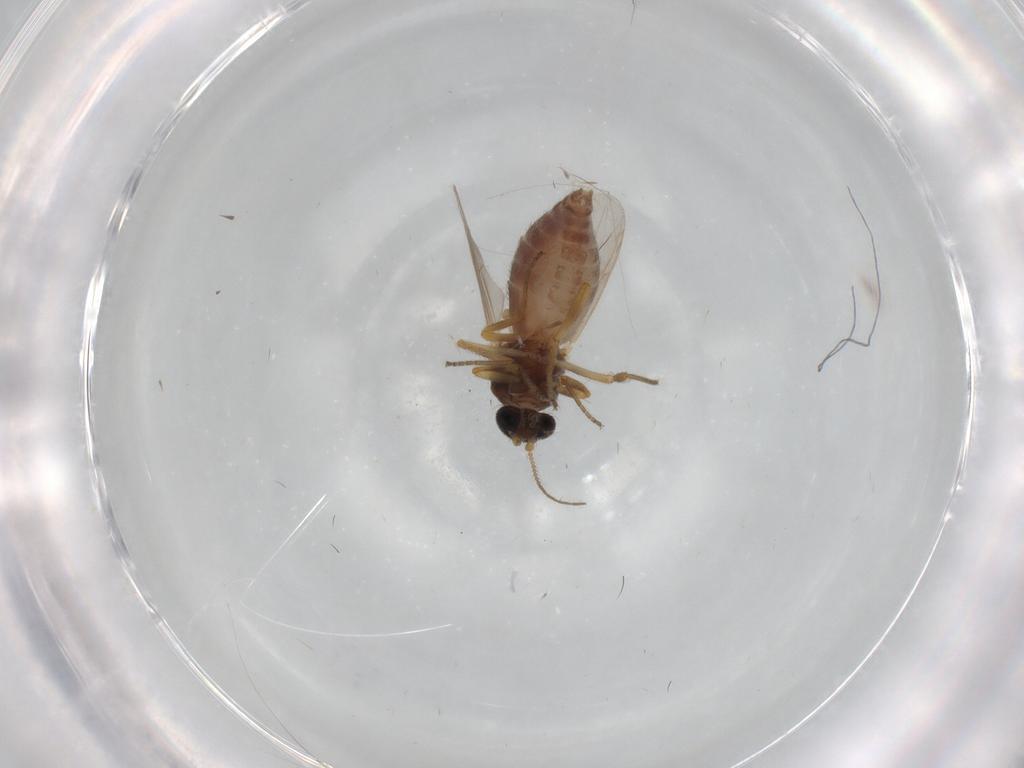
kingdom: Animalia
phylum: Arthropoda
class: Insecta
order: Diptera
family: Ceratopogonidae
